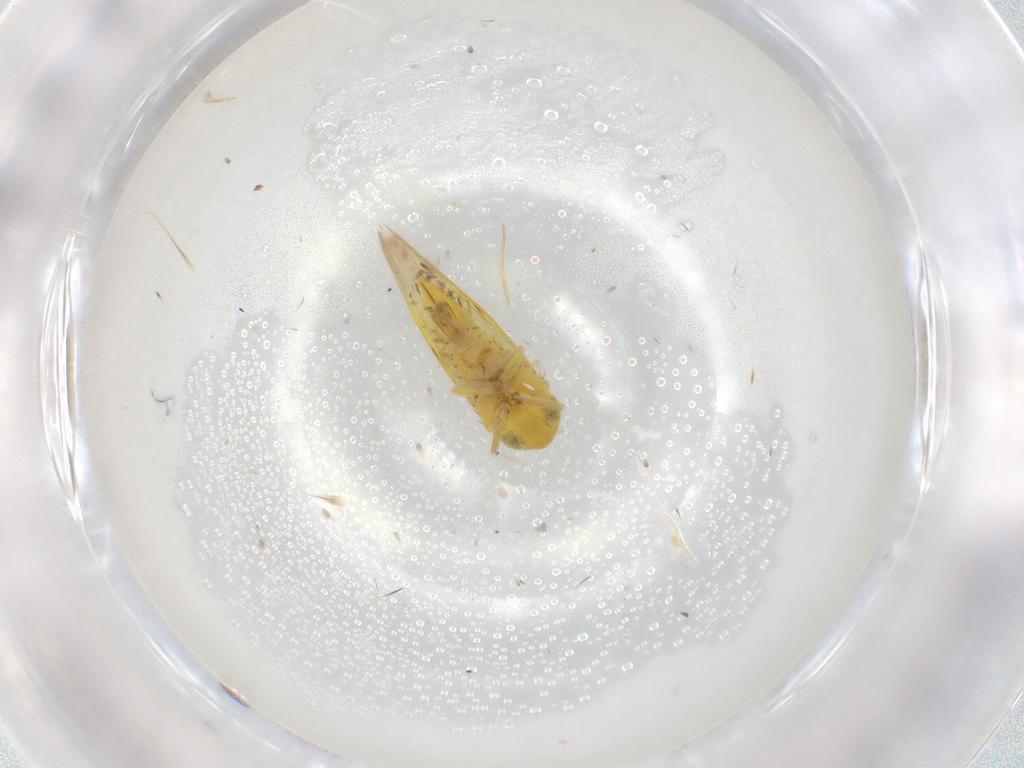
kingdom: Animalia
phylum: Arthropoda
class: Insecta
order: Hemiptera
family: Cicadellidae
